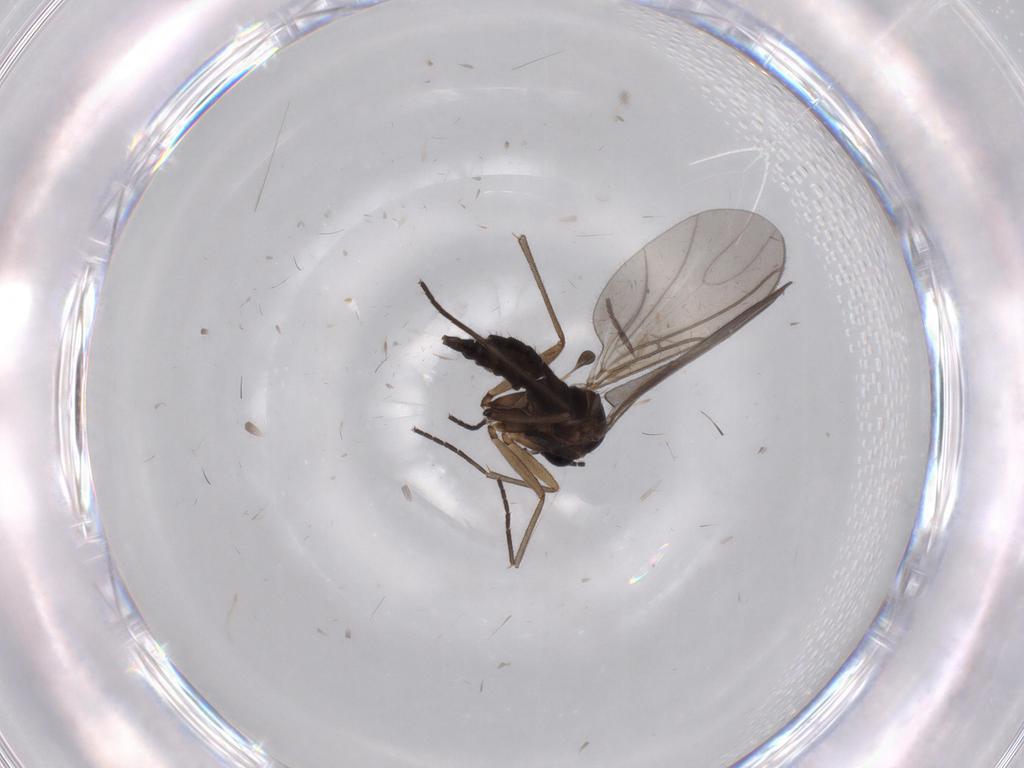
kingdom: Animalia
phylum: Arthropoda
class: Insecta
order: Diptera
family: Sciaridae
